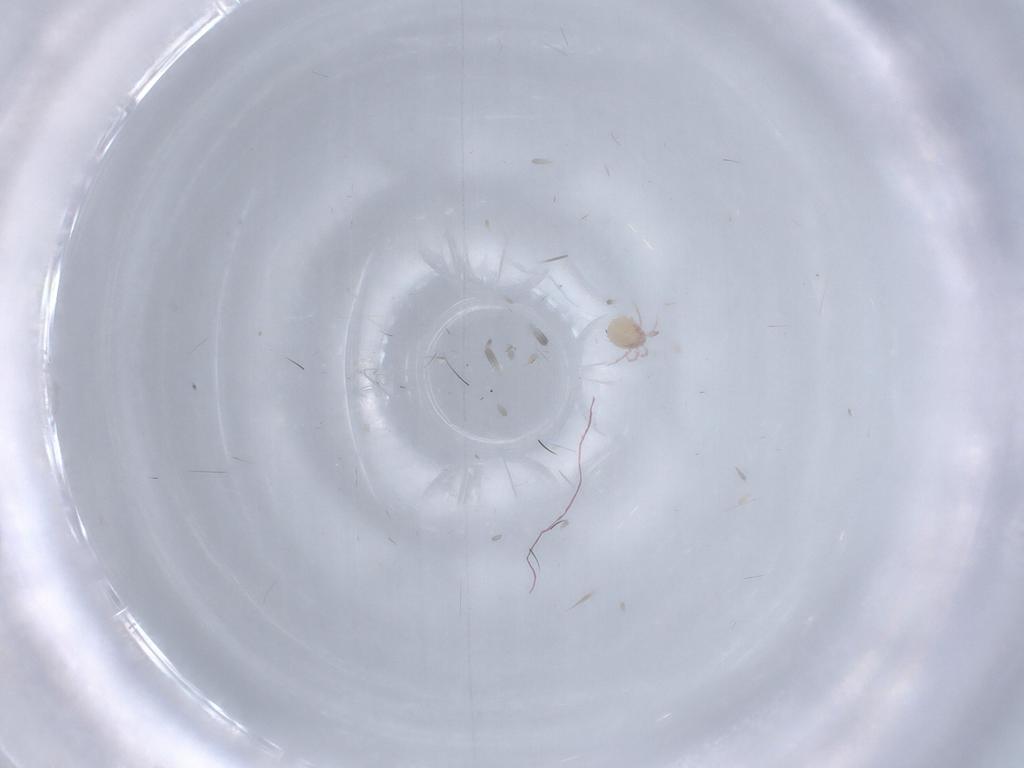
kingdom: Animalia
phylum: Arthropoda
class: Arachnida
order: Trombidiformes
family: Lebertiidae
